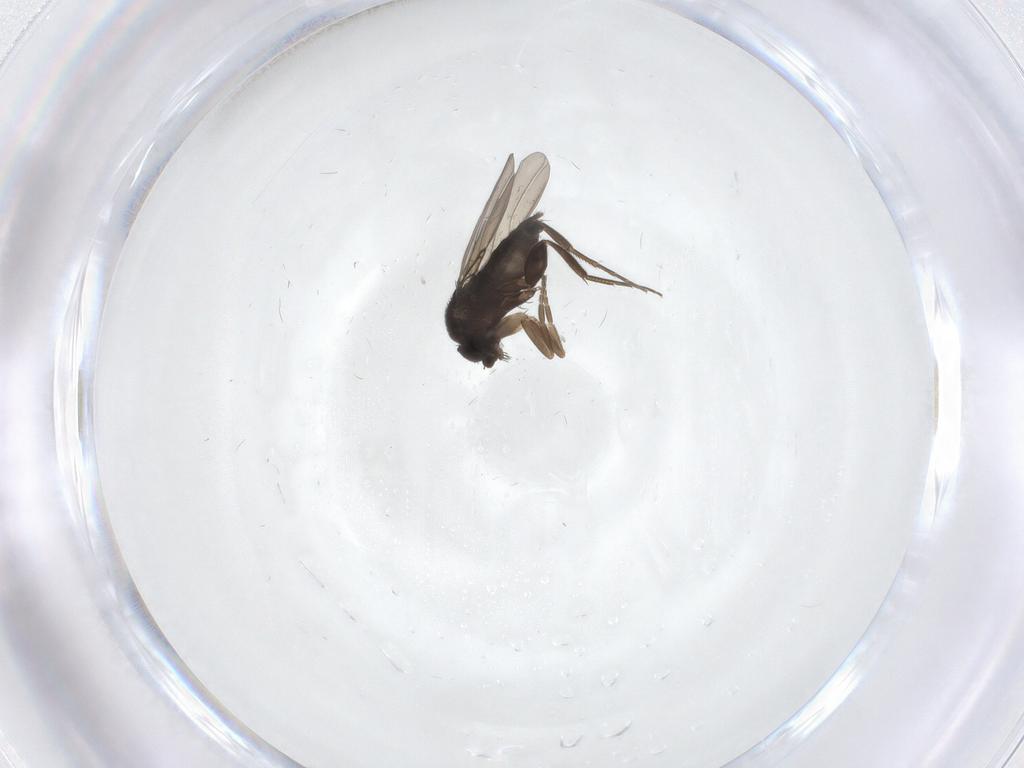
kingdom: Animalia
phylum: Arthropoda
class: Insecta
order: Diptera
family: Phoridae
